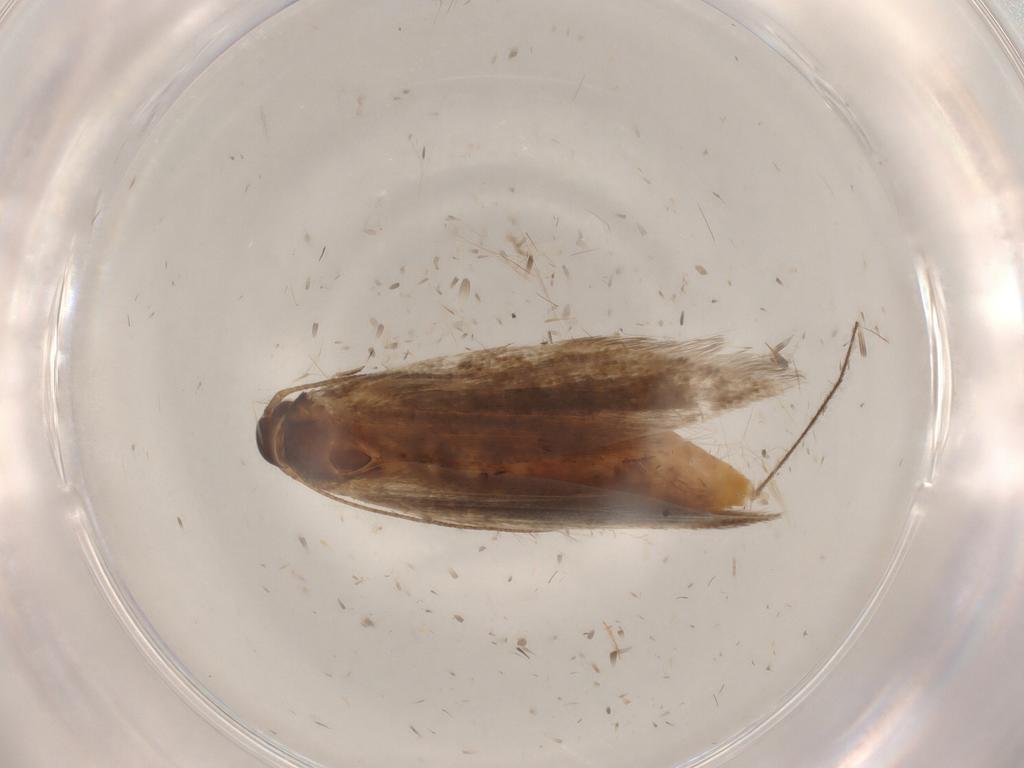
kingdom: Animalia
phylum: Arthropoda
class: Insecta
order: Lepidoptera
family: Gelechiidae
